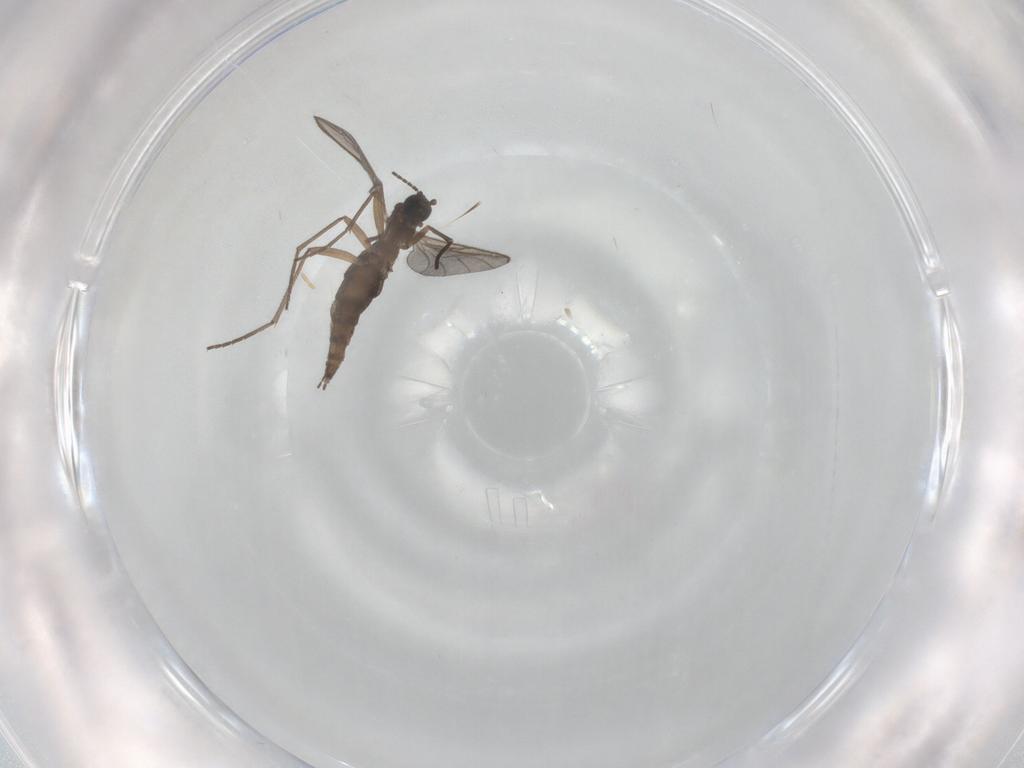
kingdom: Animalia
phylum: Arthropoda
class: Insecta
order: Diptera
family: Sciaridae
